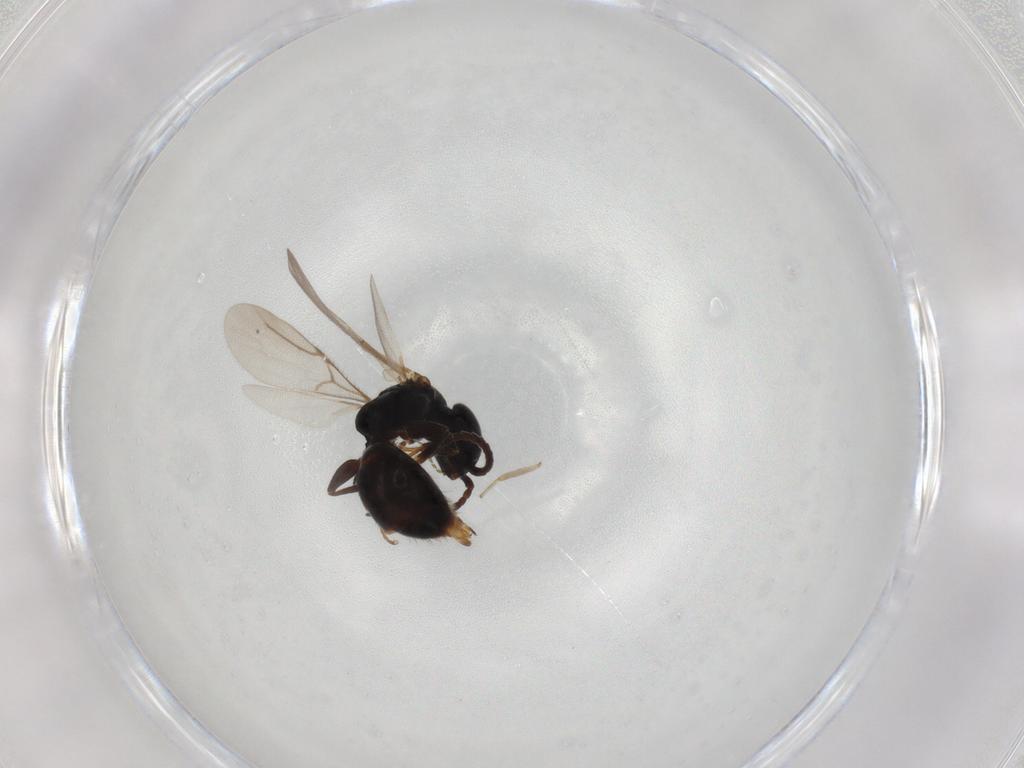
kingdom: Animalia
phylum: Arthropoda
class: Insecta
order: Hymenoptera
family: Bethylidae
